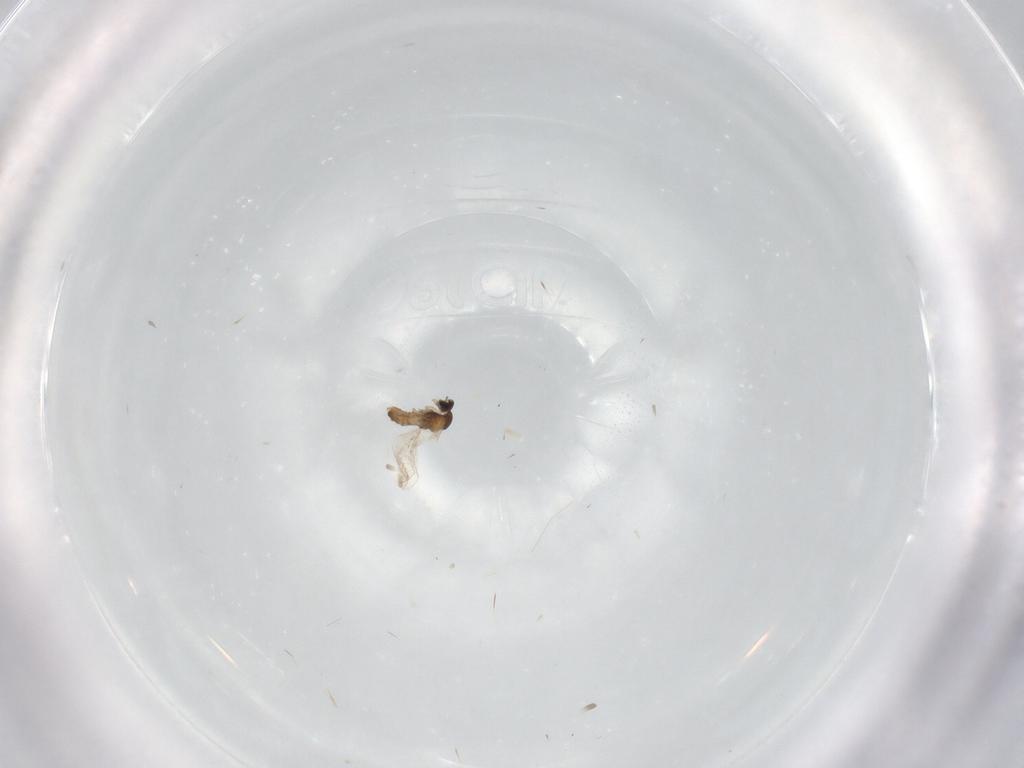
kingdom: Animalia
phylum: Arthropoda
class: Insecta
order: Diptera
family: Cecidomyiidae
